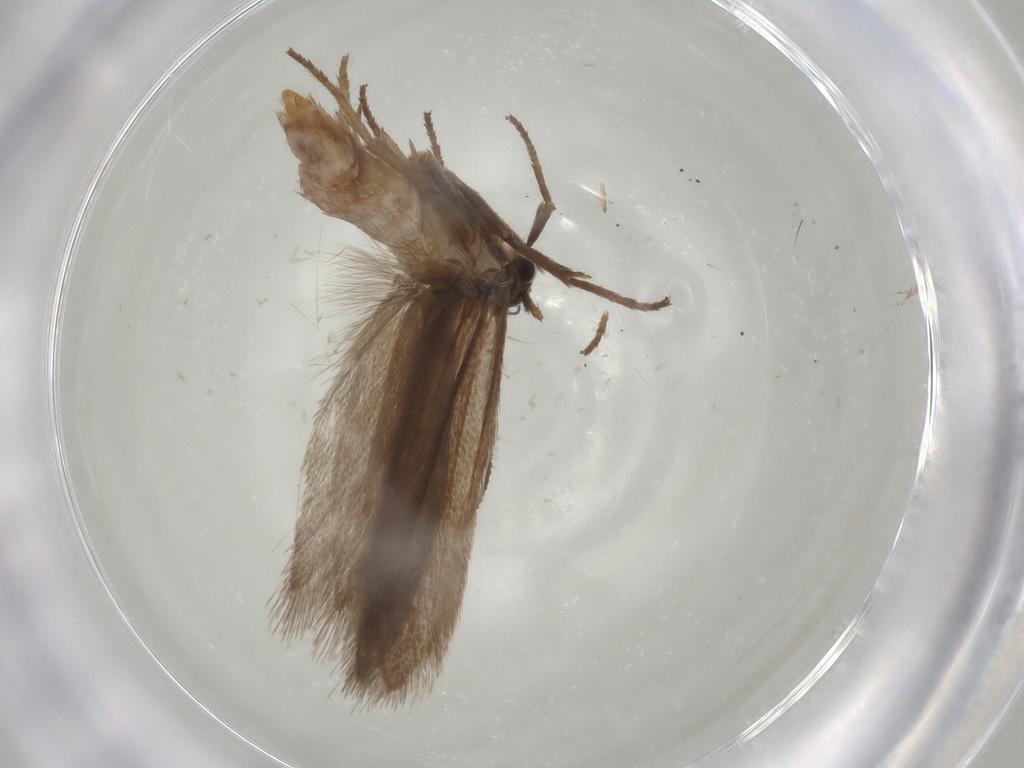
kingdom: Animalia
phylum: Arthropoda
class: Insecta
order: Lepidoptera
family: Limacodidae
